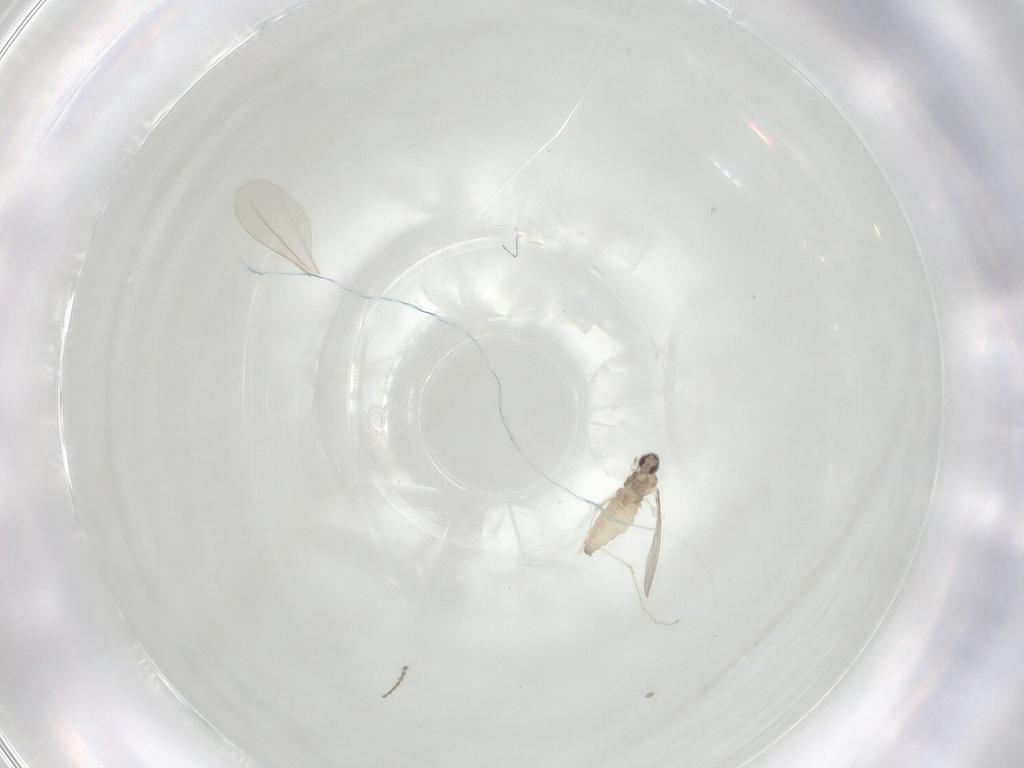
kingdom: Animalia
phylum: Arthropoda
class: Insecta
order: Diptera
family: Cecidomyiidae
